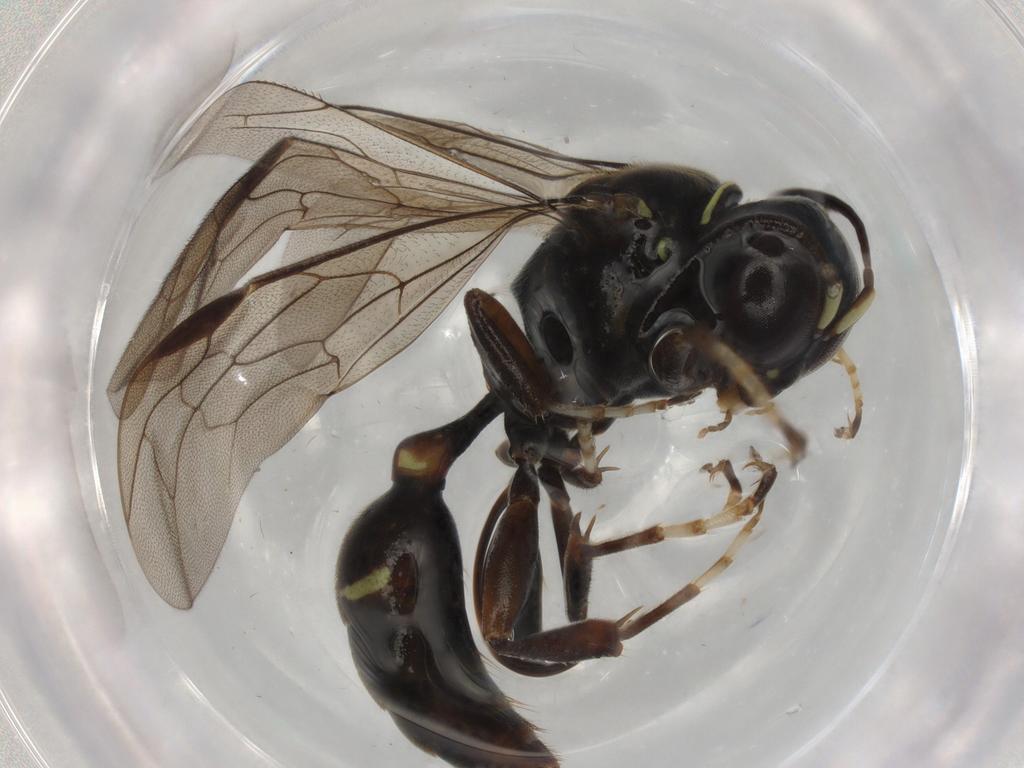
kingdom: Animalia
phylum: Arthropoda
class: Insecta
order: Hymenoptera
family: Bembicidae
